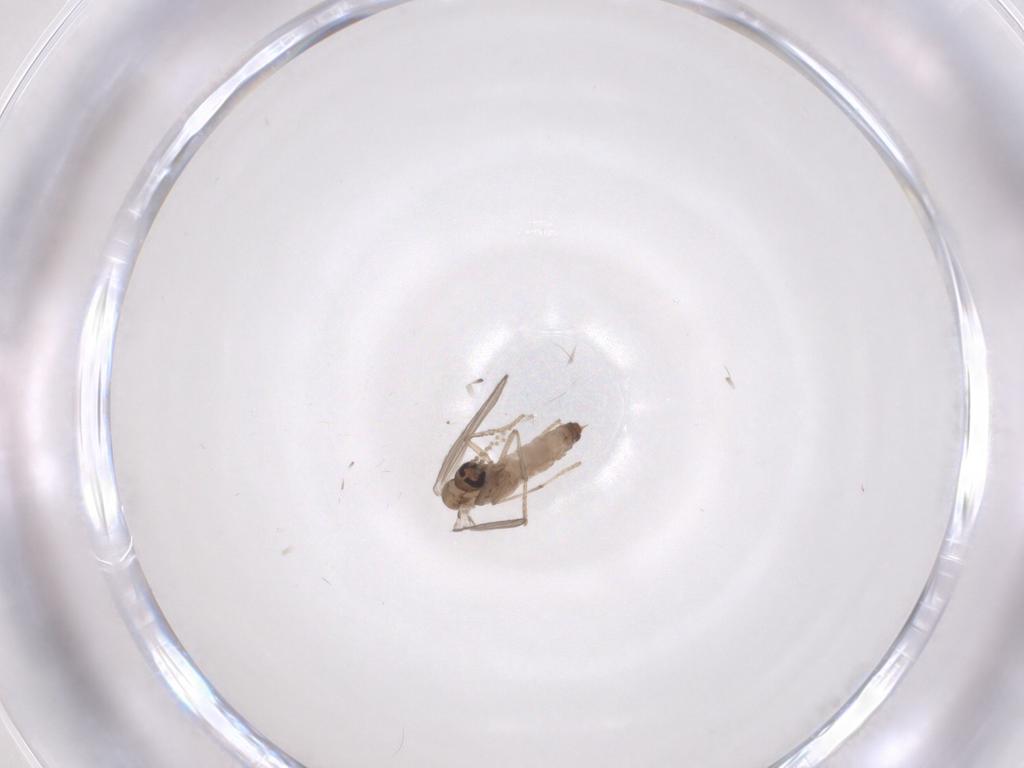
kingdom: Animalia
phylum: Arthropoda
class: Insecta
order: Diptera
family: Psychodidae
